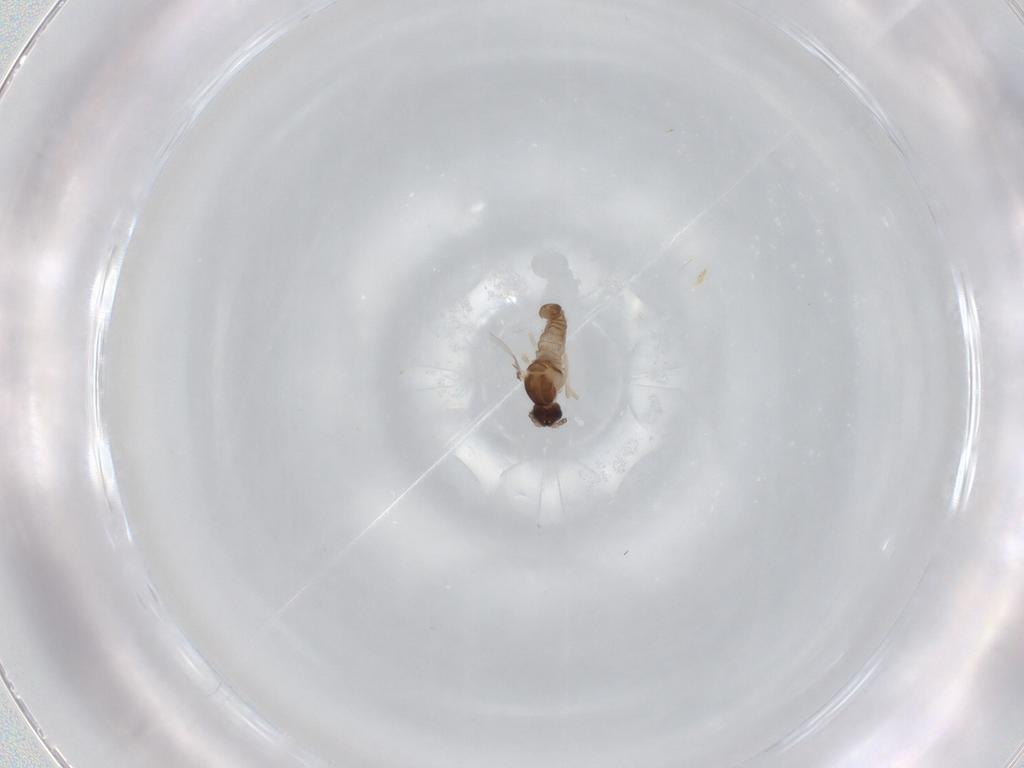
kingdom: Animalia
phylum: Arthropoda
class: Insecta
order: Diptera
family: Cecidomyiidae
